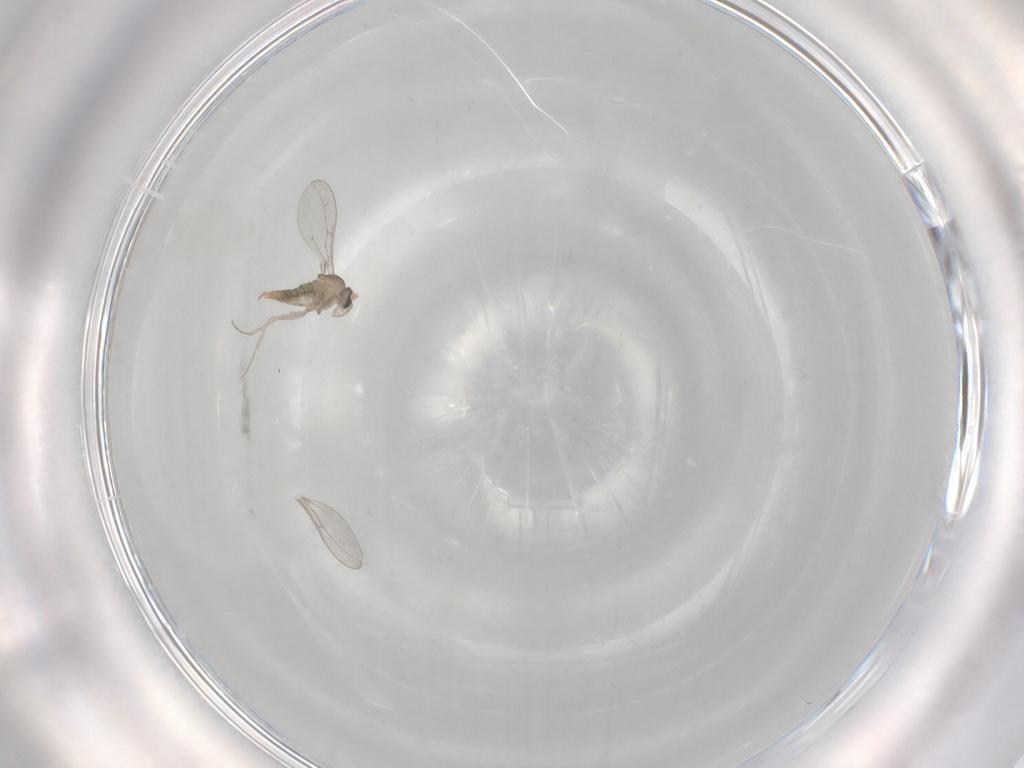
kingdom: Animalia
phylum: Arthropoda
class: Insecta
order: Diptera
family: Cecidomyiidae
